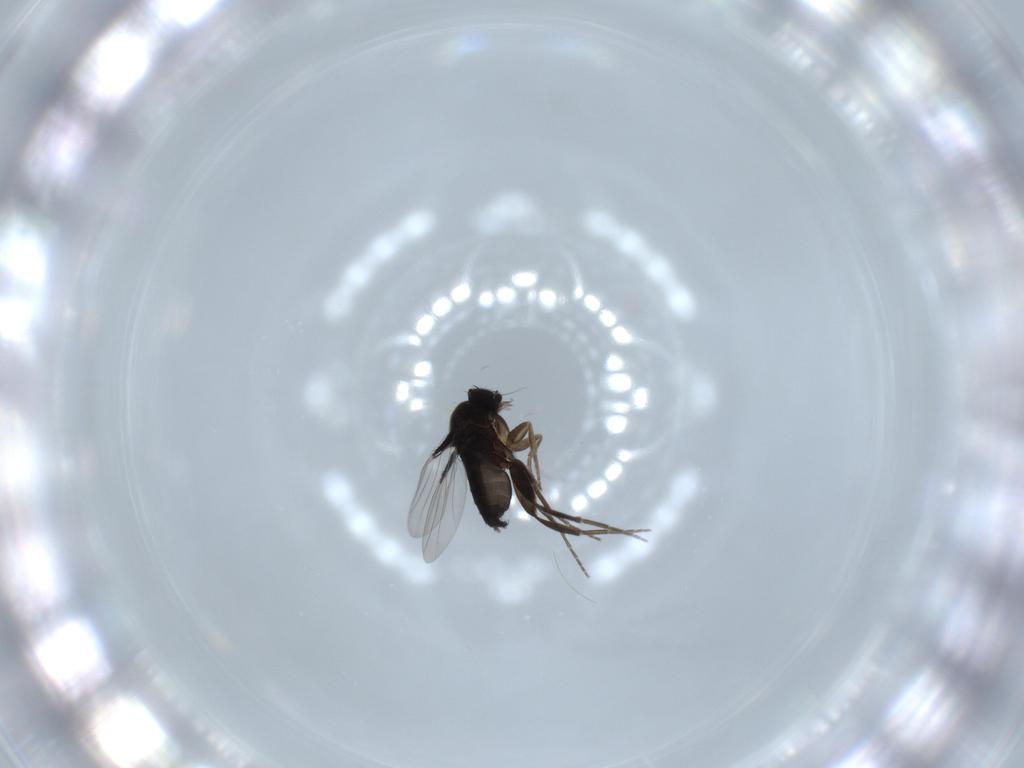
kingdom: Animalia
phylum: Arthropoda
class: Insecta
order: Diptera
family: Phoridae
